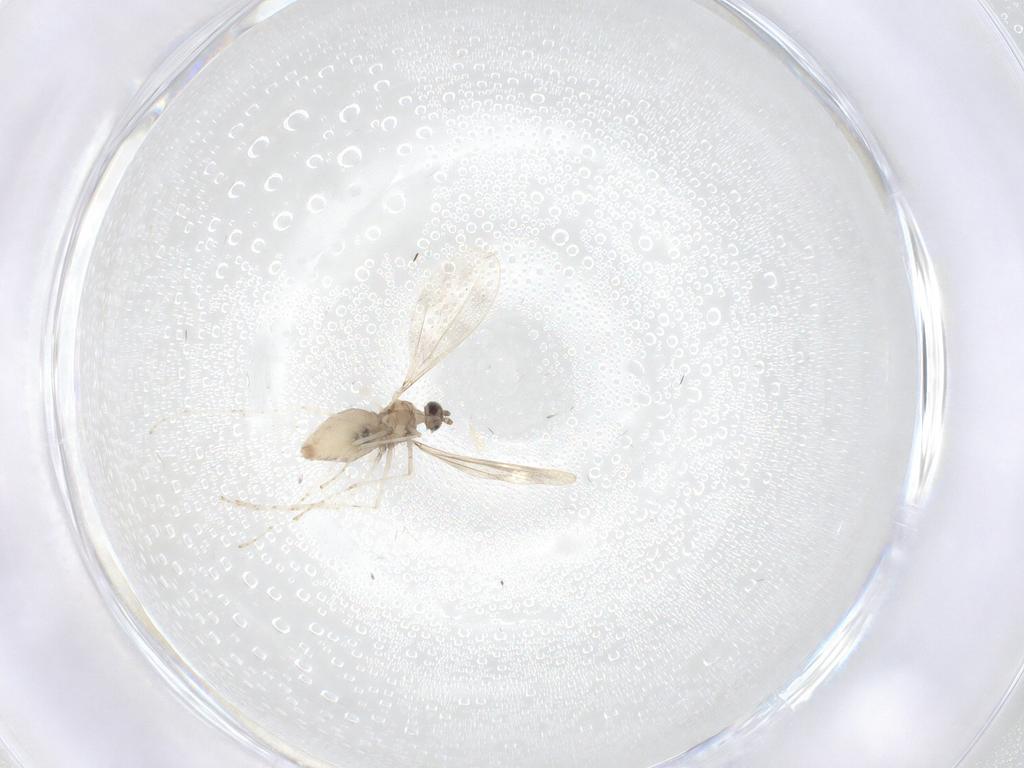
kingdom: Animalia
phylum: Arthropoda
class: Insecta
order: Diptera
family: Cecidomyiidae
